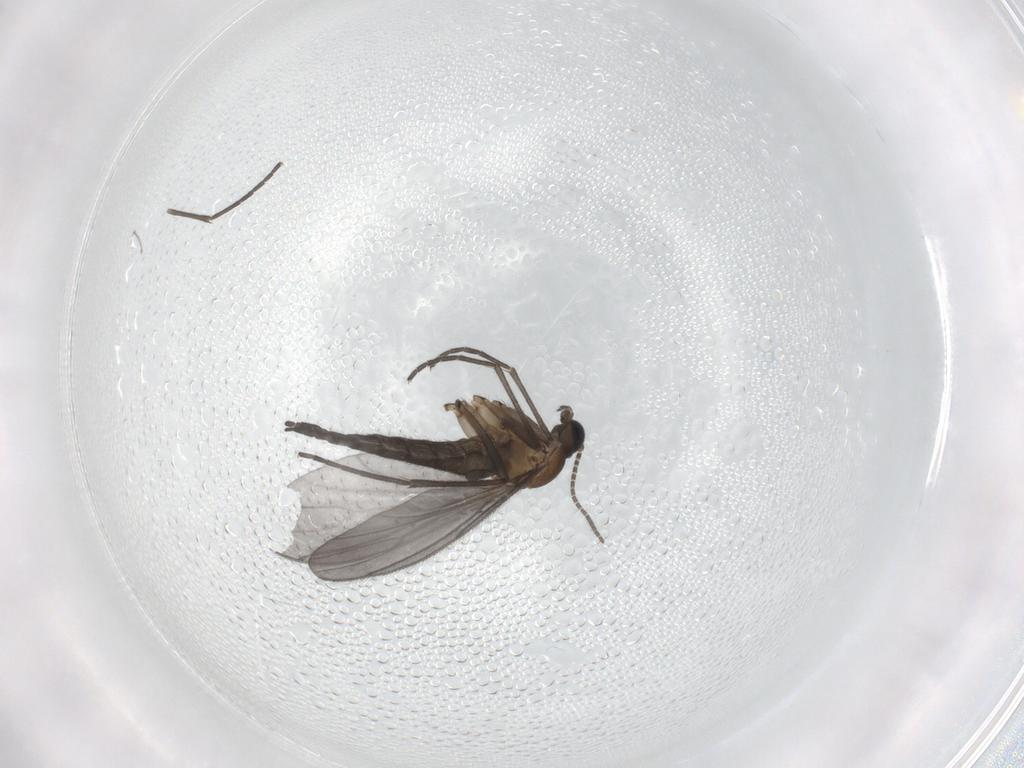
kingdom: Animalia
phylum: Arthropoda
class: Insecta
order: Diptera
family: Sciaridae
